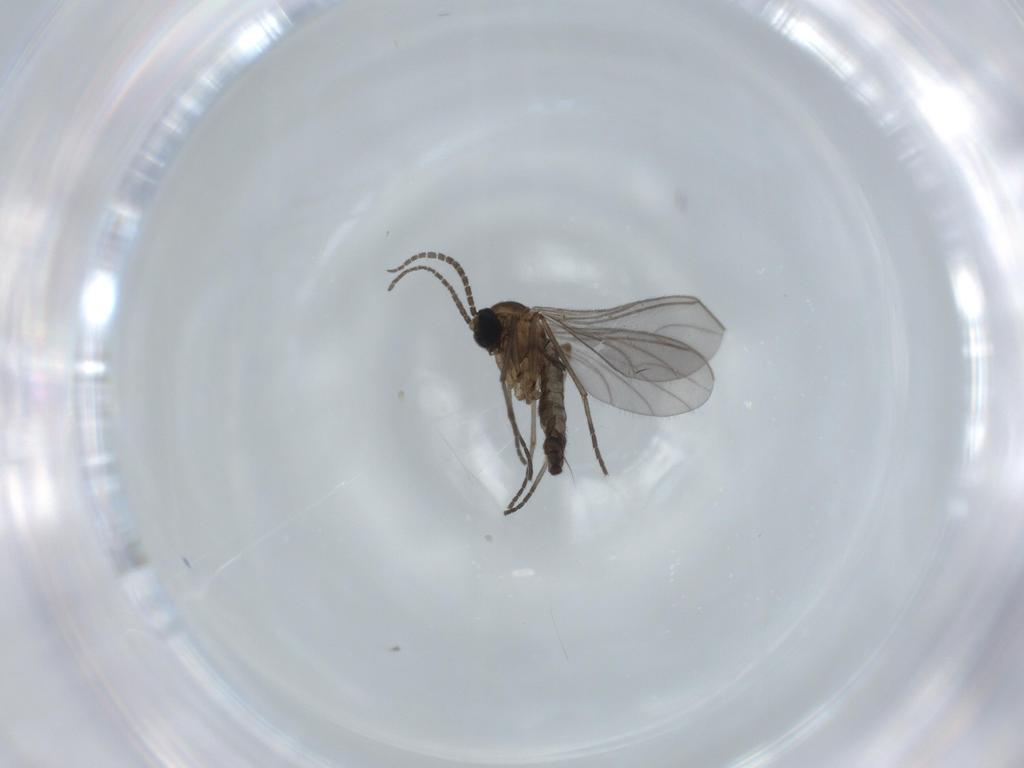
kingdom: Animalia
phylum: Arthropoda
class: Insecta
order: Diptera
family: Sciaridae
